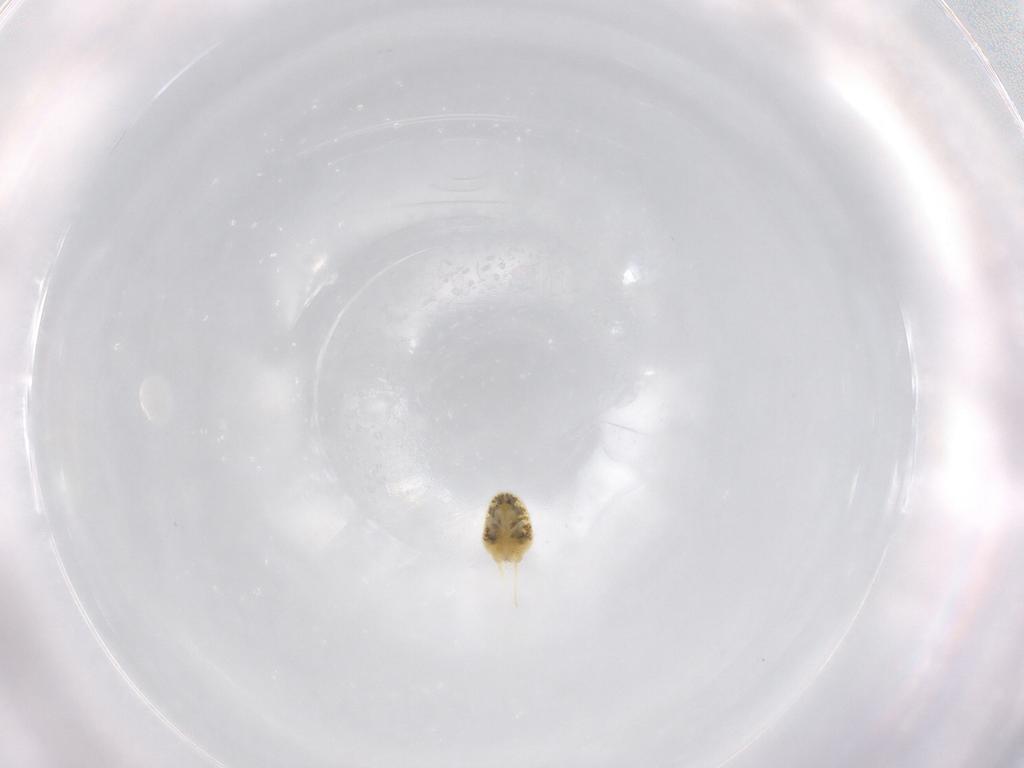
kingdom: Animalia
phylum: Arthropoda
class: Arachnida
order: Trombidiformes
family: Tetranychidae
